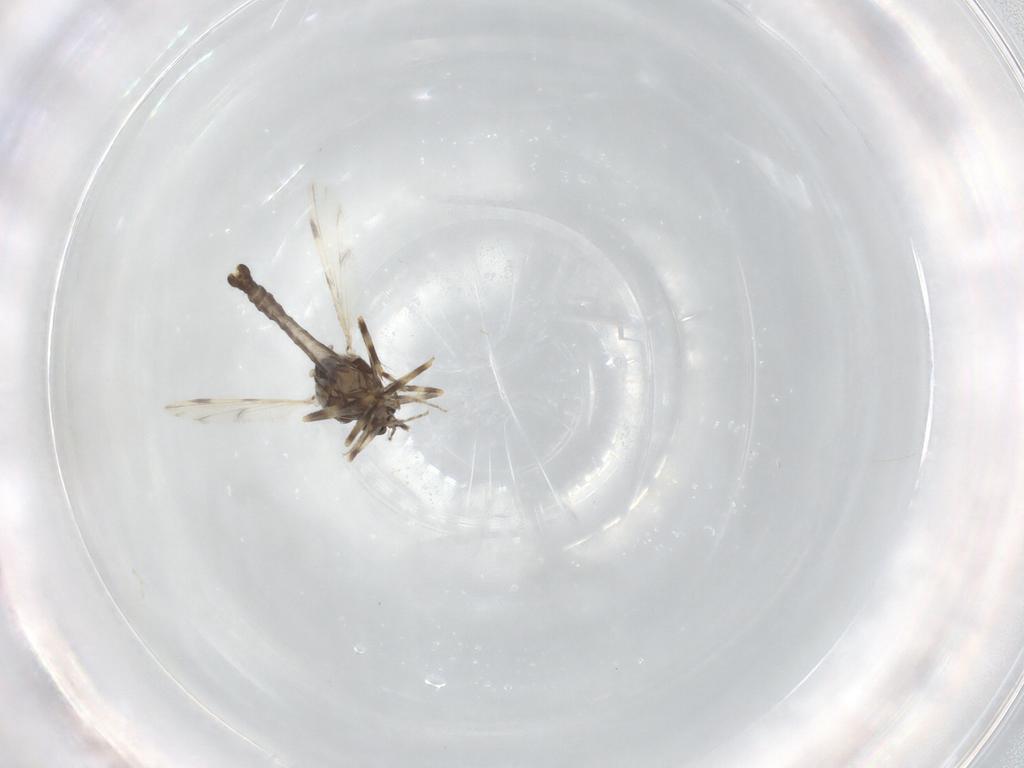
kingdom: Animalia
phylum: Arthropoda
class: Insecta
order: Diptera
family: Ceratopogonidae
